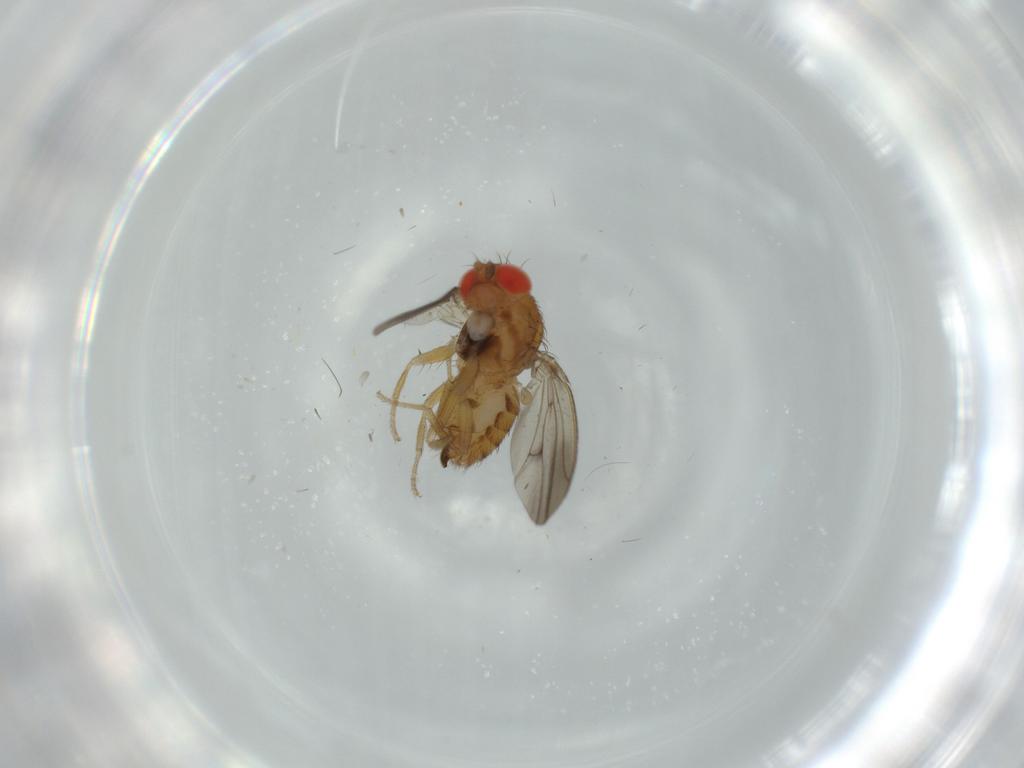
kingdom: Animalia
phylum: Arthropoda
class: Insecta
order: Diptera
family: Drosophilidae
